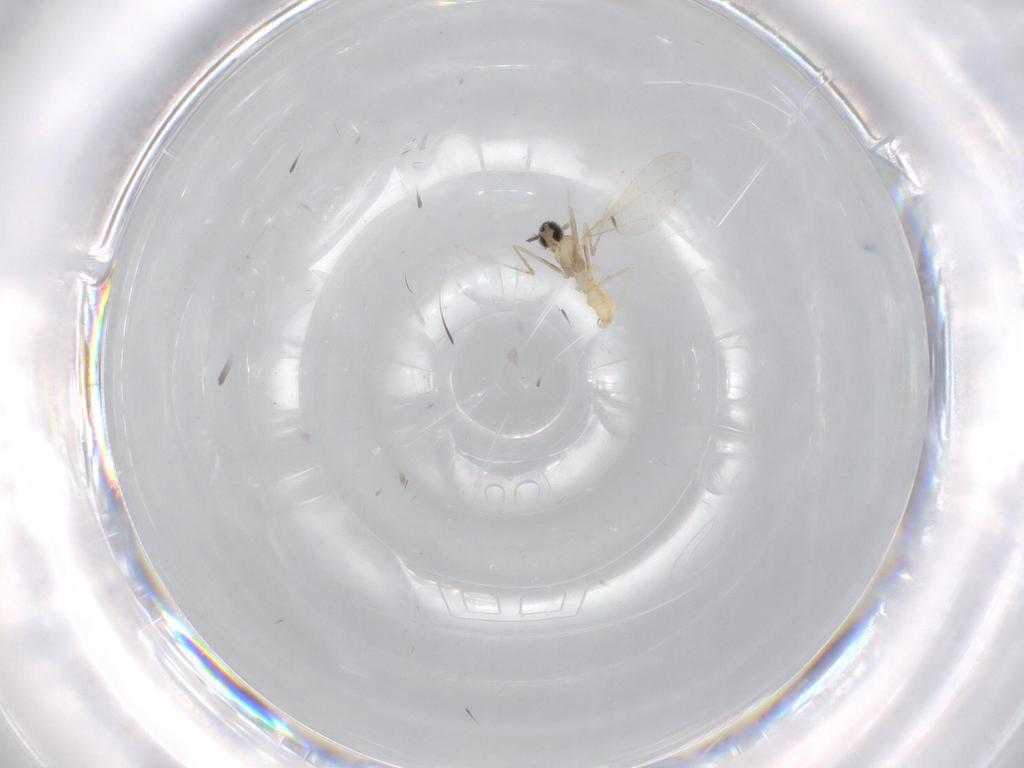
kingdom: Animalia
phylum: Arthropoda
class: Insecta
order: Diptera
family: Cecidomyiidae
